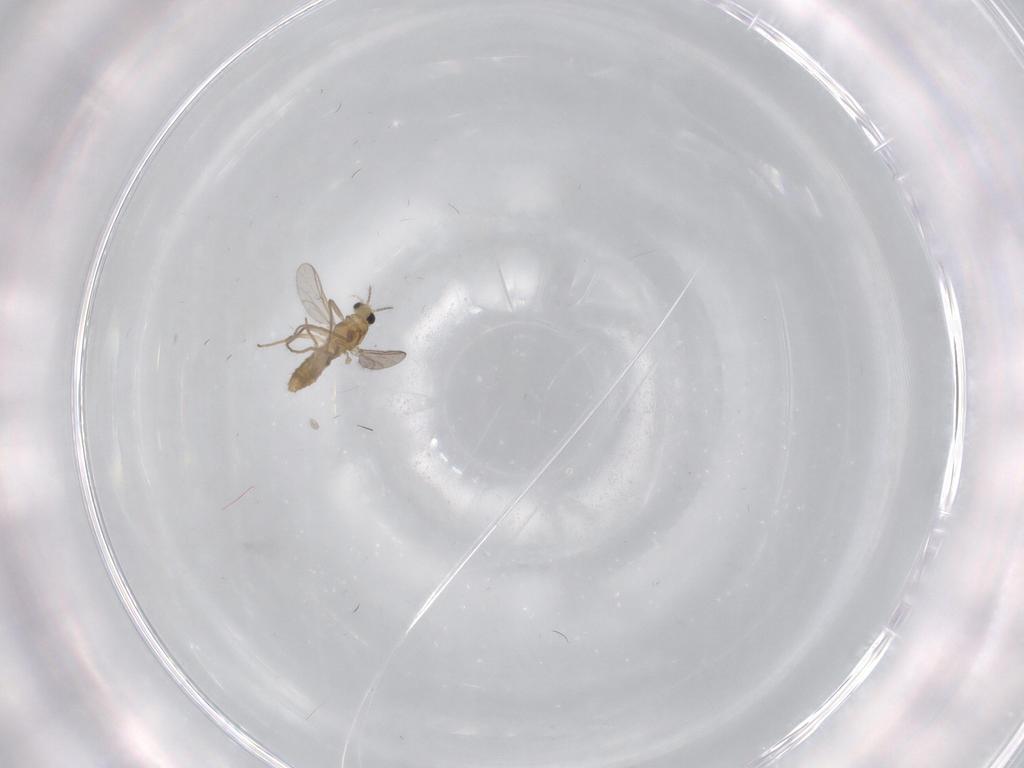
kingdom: Animalia
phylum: Arthropoda
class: Insecta
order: Diptera
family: Chironomidae
